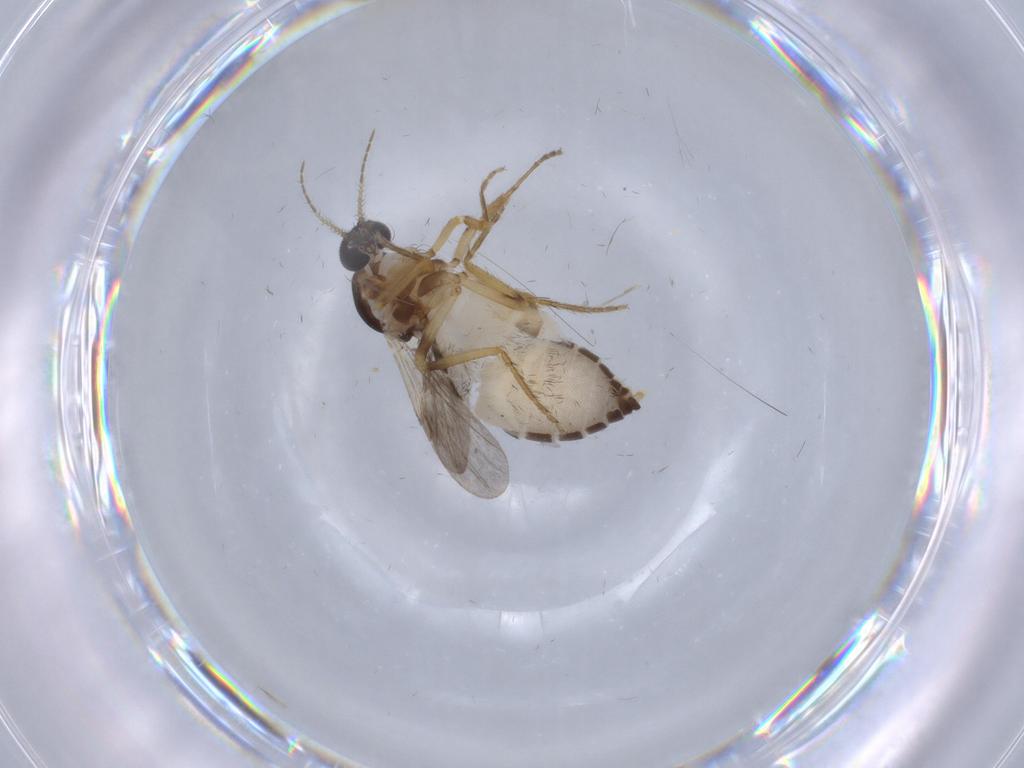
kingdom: Animalia
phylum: Arthropoda
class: Insecta
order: Diptera
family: Ceratopogonidae
